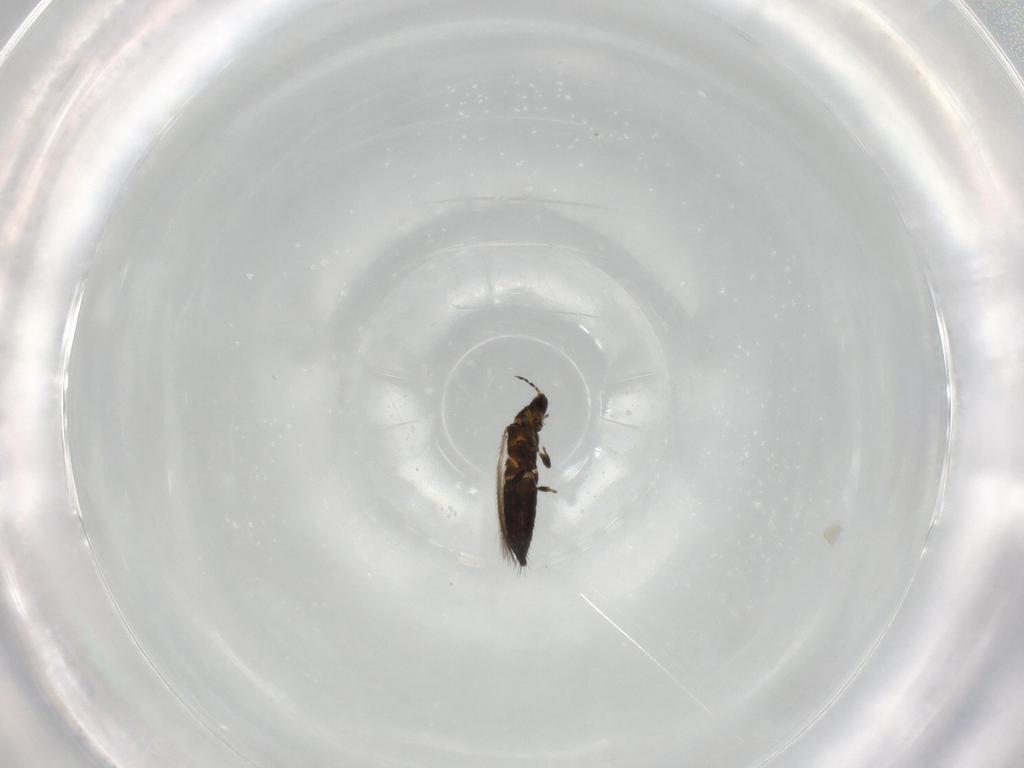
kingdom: Animalia
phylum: Arthropoda
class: Insecta
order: Thysanoptera
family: Thripidae
